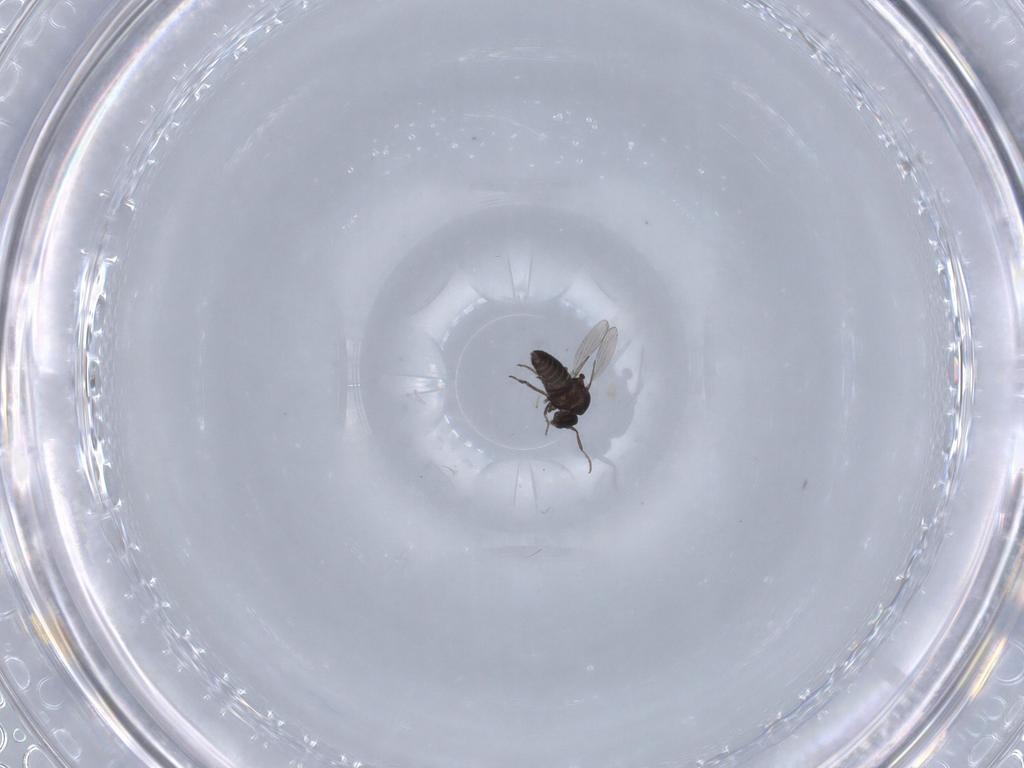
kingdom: Animalia
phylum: Arthropoda
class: Insecta
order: Diptera
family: Ceratopogonidae
